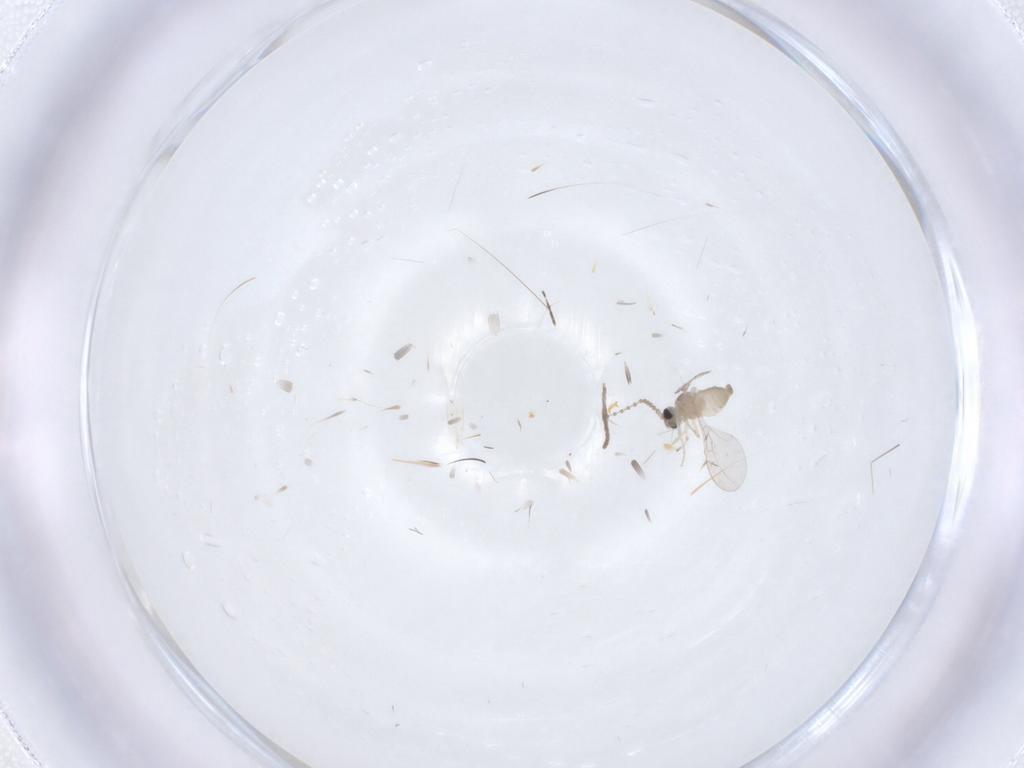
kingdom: Animalia
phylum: Arthropoda
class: Insecta
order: Diptera
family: Cecidomyiidae
